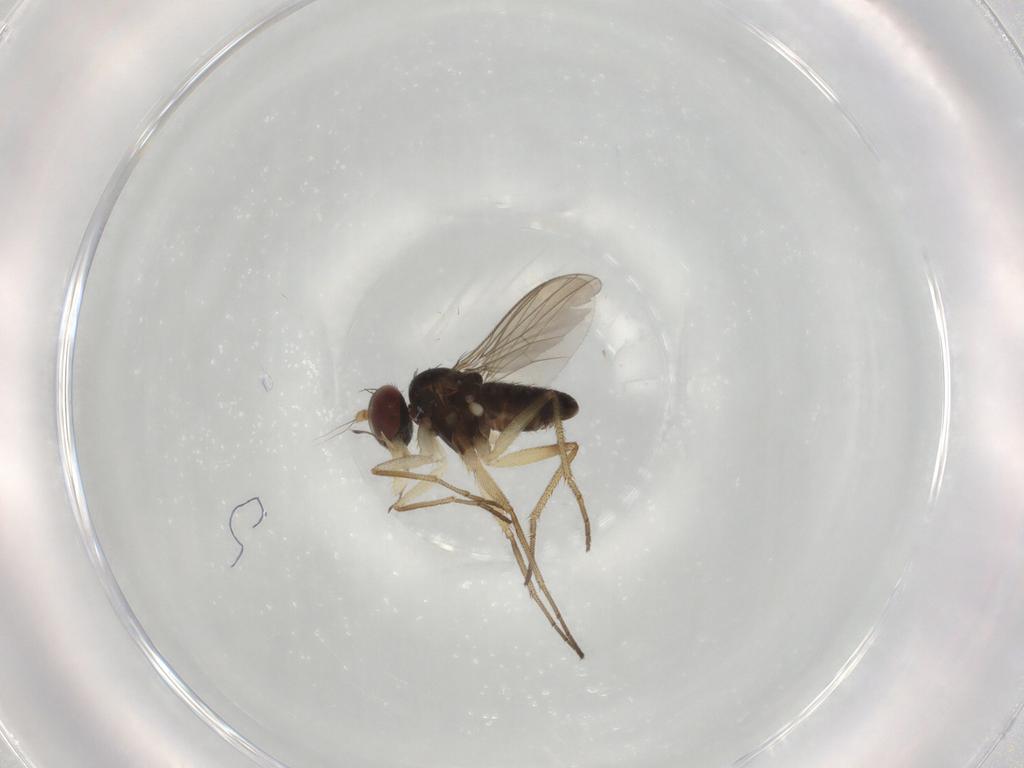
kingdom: Animalia
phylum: Arthropoda
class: Insecta
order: Diptera
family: Dolichopodidae
